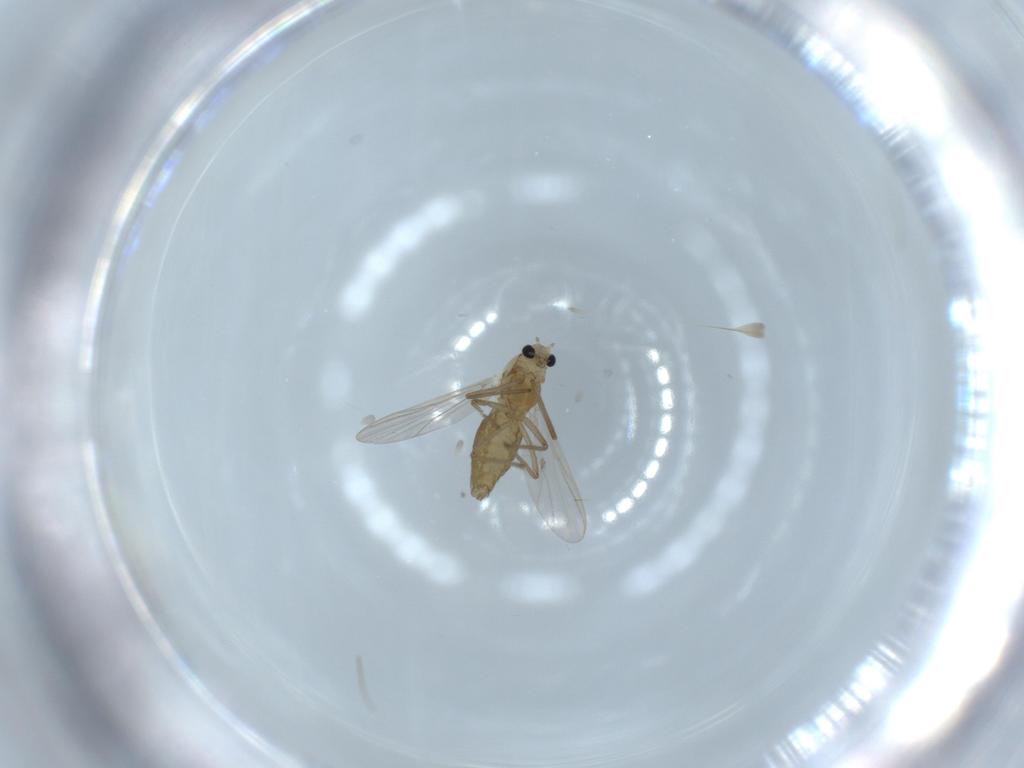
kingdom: Animalia
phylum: Arthropoda
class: Insecta
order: Diptera
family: Chironomidae
